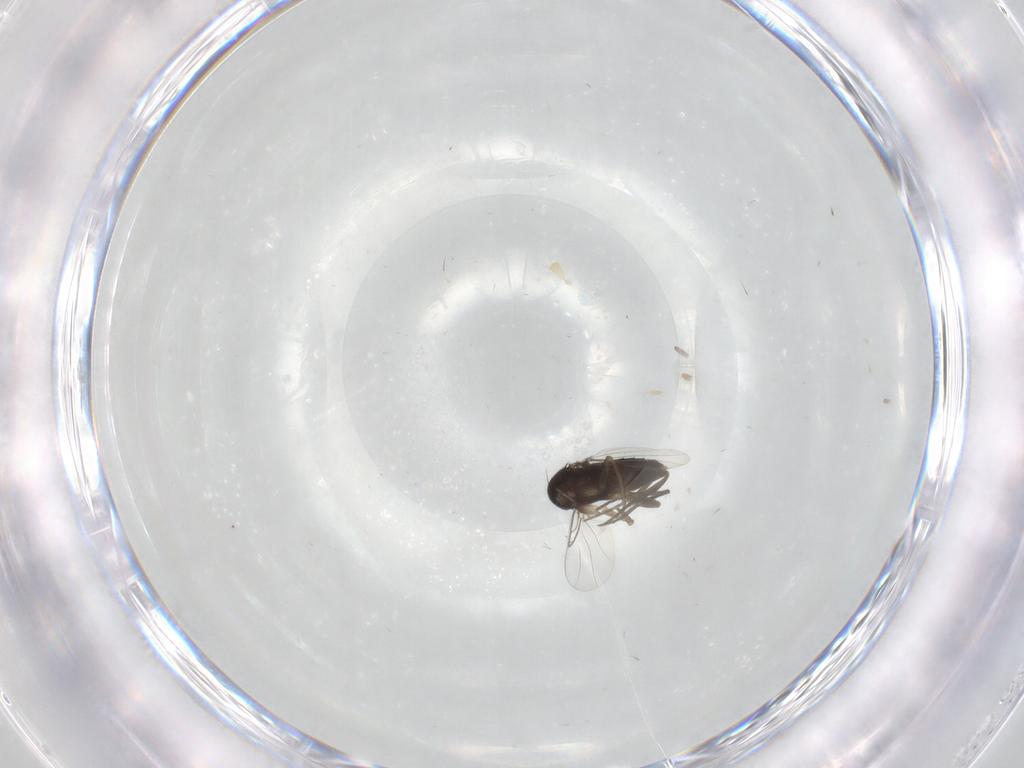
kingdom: Animalia
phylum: Arthropoda
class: Insecta
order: Diptera
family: Phoridae
